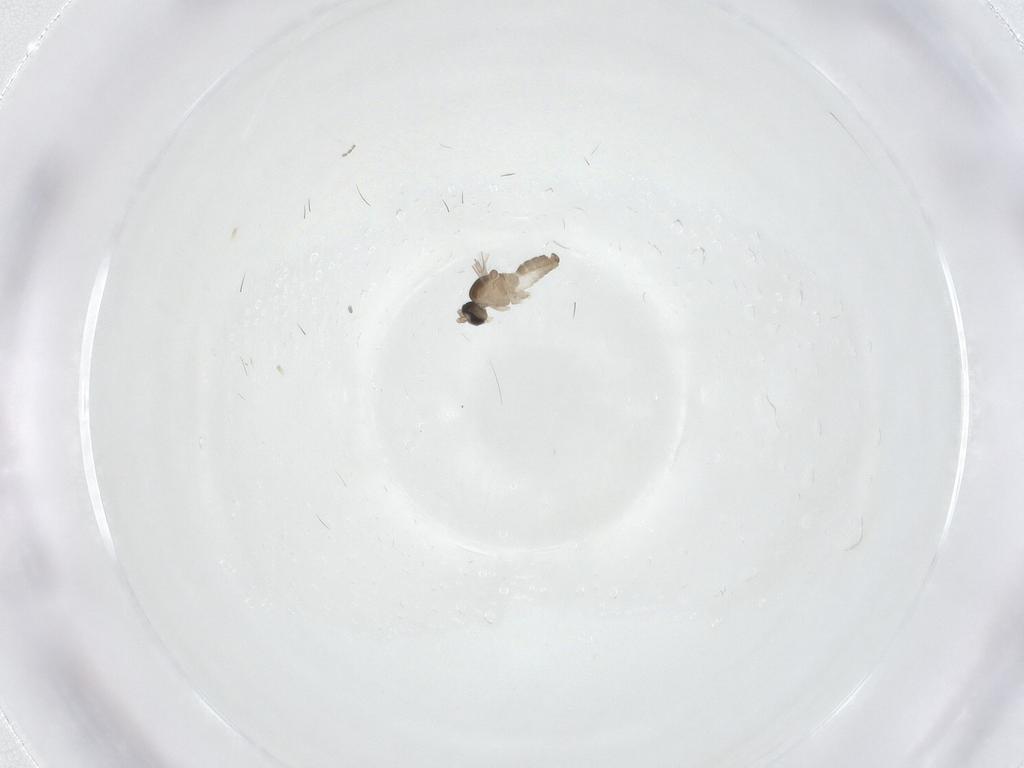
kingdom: Animalia
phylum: Arthropoda
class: Insecta
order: Diptera
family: Cecidomyiidae
